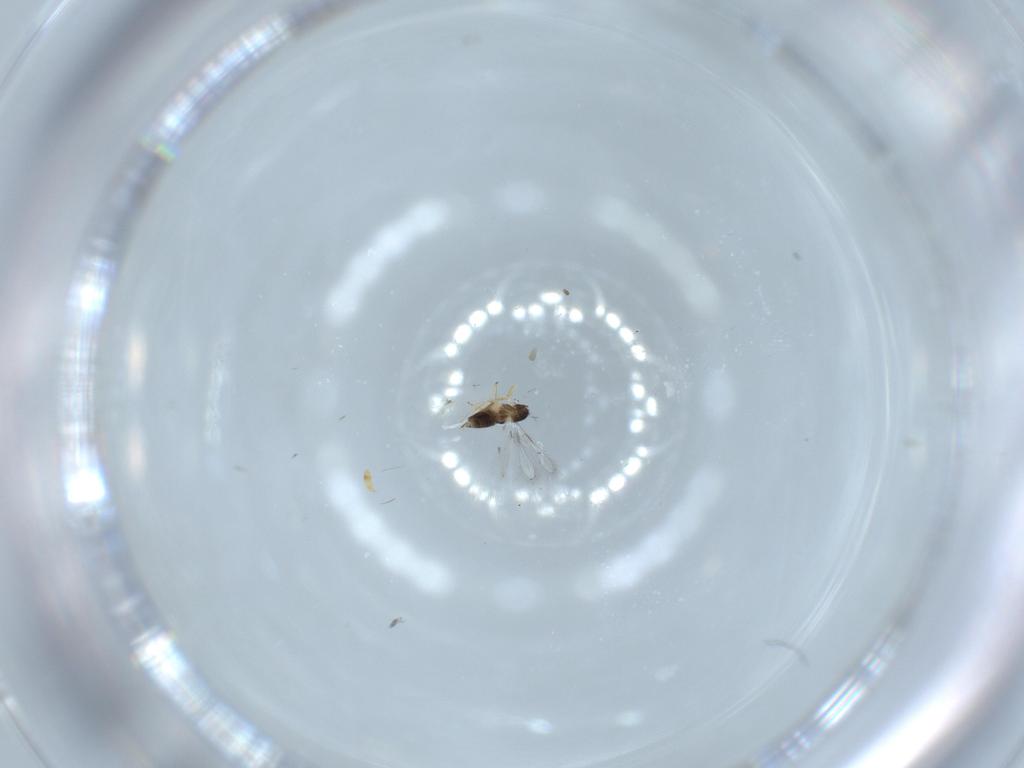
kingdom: Animalia
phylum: Arthropoda
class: Insecta
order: Hymenoptera
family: Mymaridae
